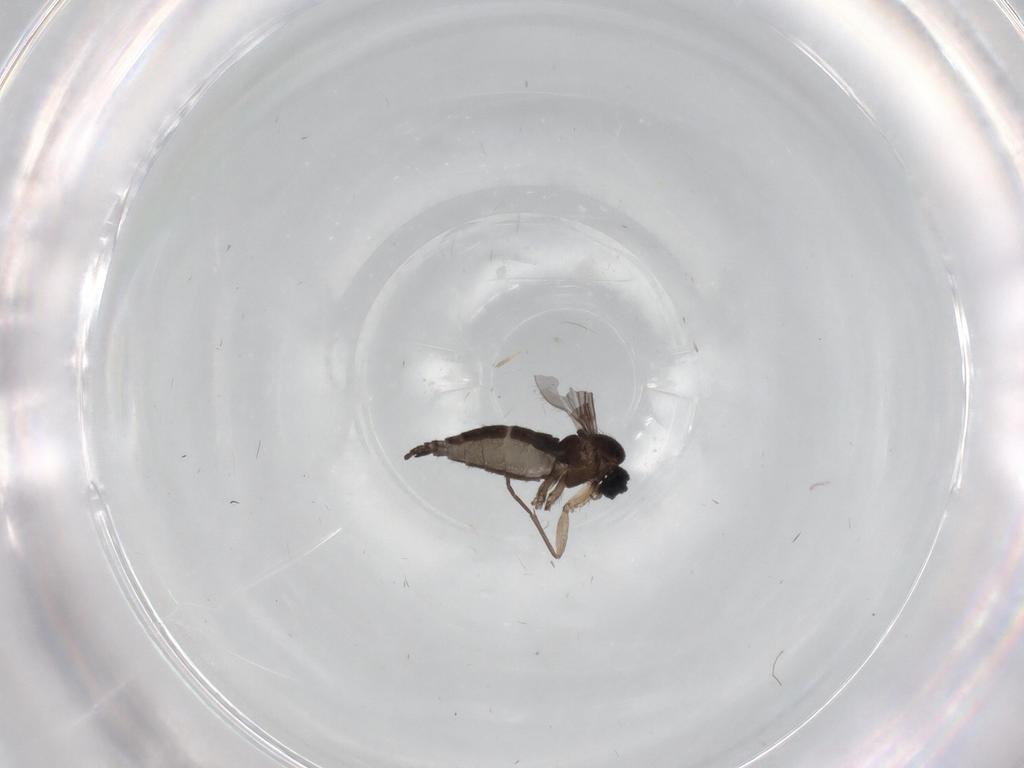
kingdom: Animalia
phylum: Arthropoda
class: Insecta
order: Diptera
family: Sciaridae
